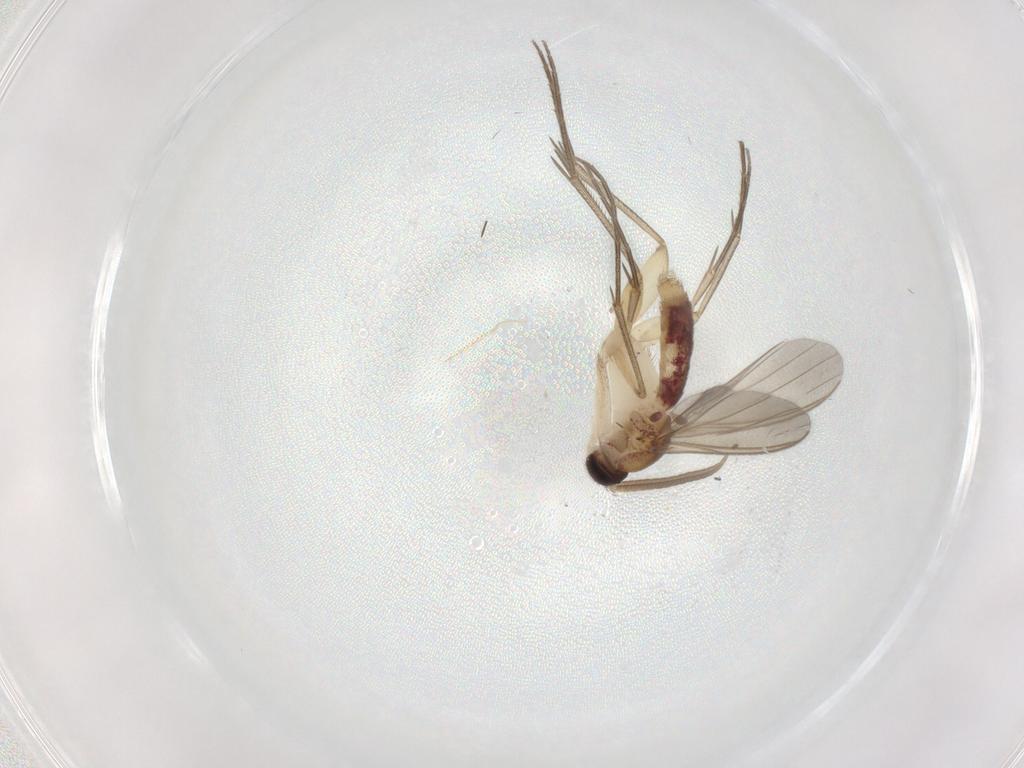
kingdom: Animalia
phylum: Arthropoda
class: Insecta
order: Diptera
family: Mycetophilidae
